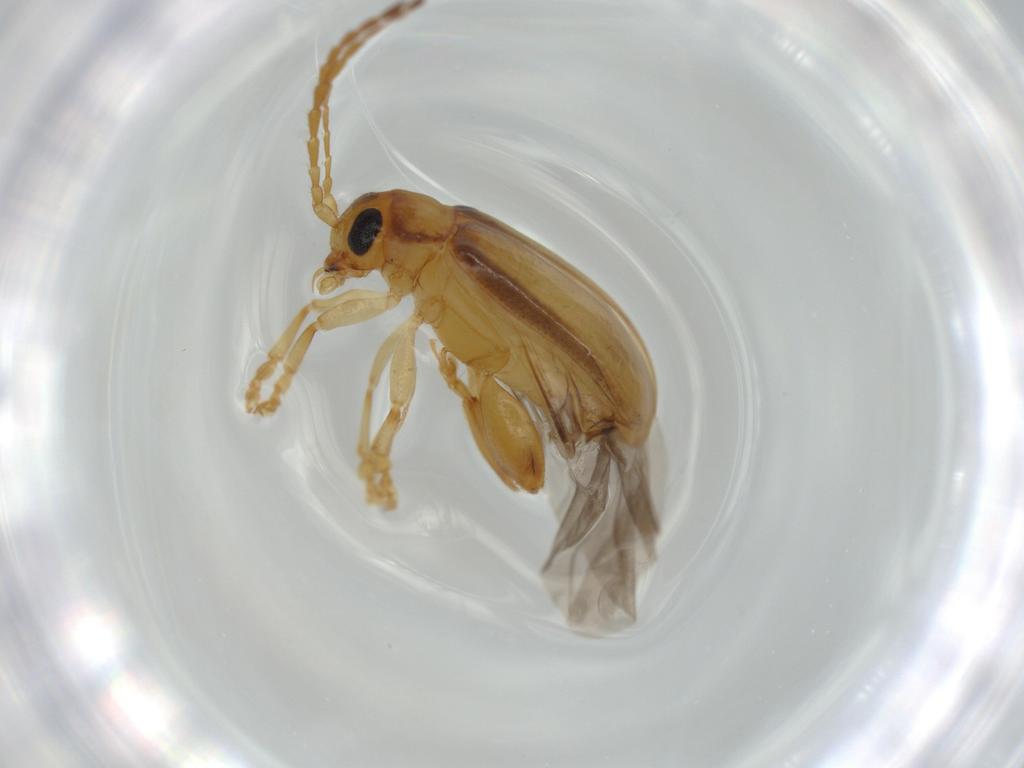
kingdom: Animalia
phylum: Arthropoda
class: Insecta
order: Coleoptera
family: Chrysomelidae
